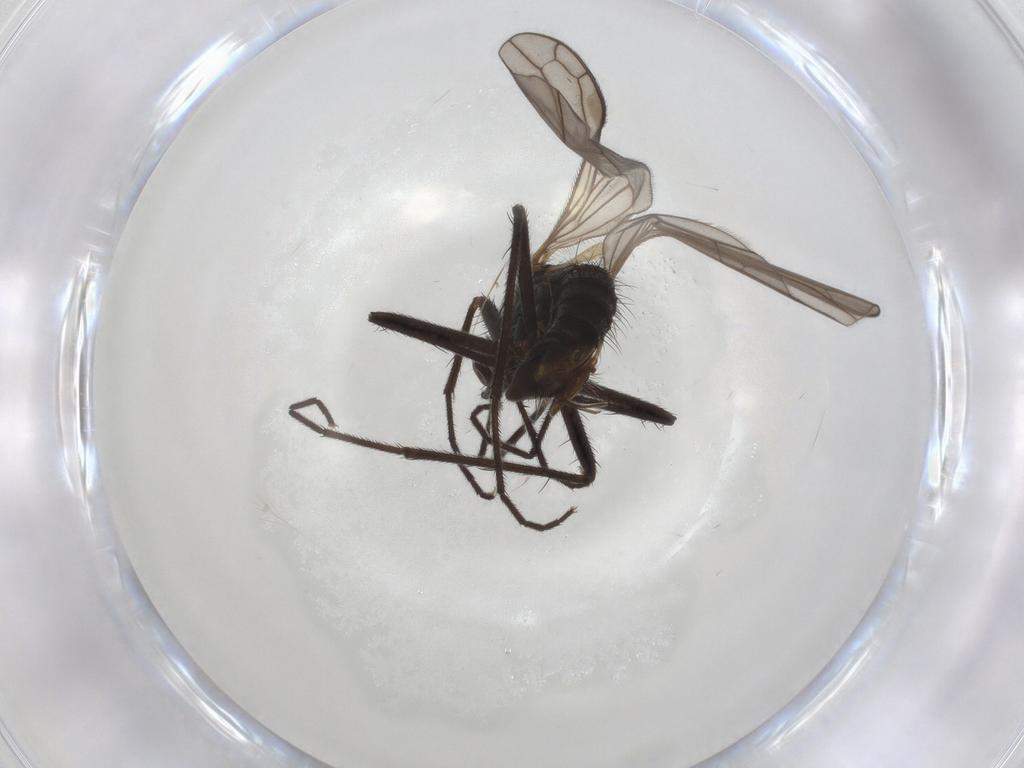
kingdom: Animalia
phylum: Arthropoda
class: Insecta
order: Diptera
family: Empididae
